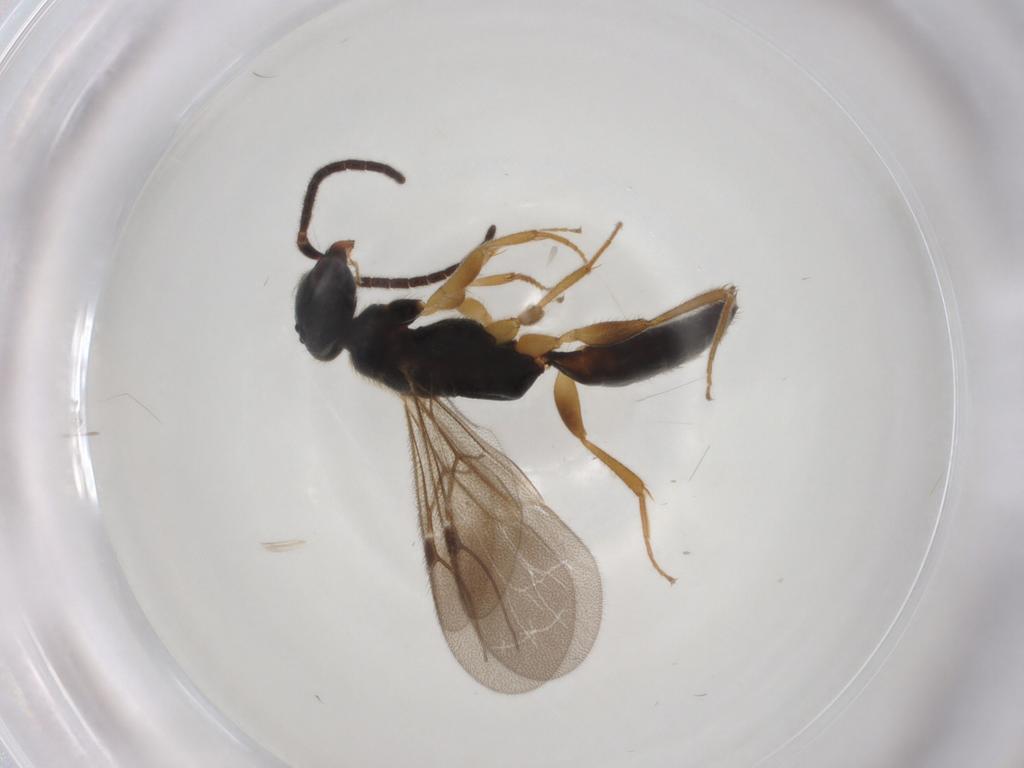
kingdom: Animalia
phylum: Arthropoda
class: Insecta
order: Hymenoptera
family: Bethylidae
